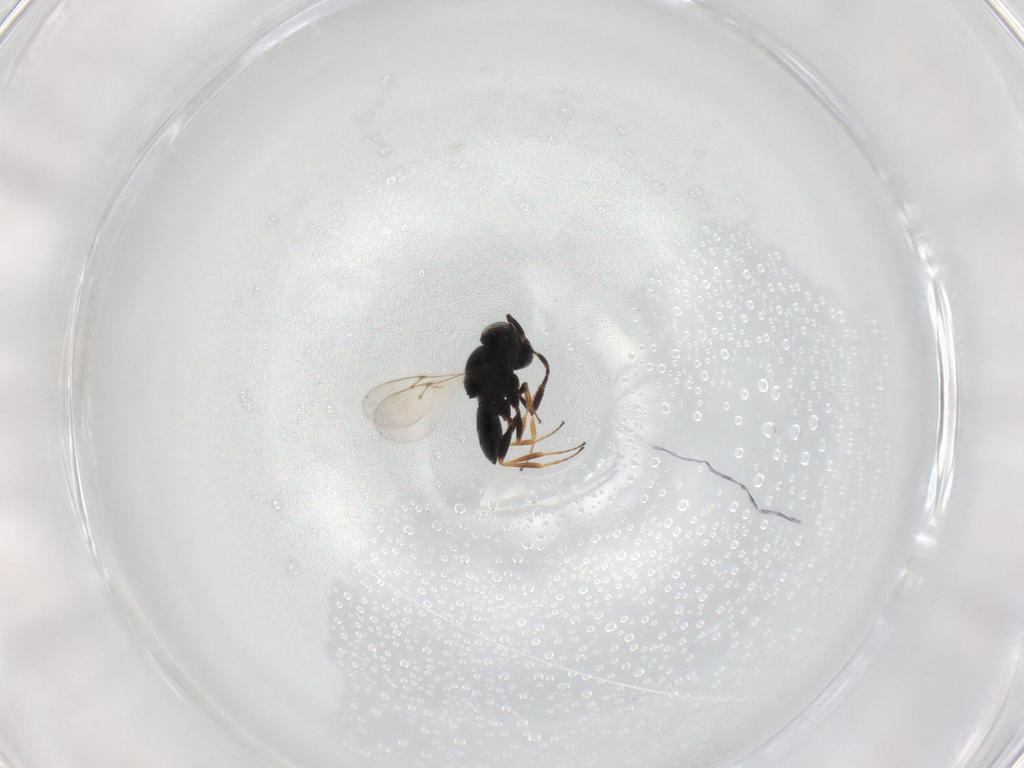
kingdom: Animalia
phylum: Arthropoda
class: Insecta
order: Hymenoptera
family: Scelionidae
